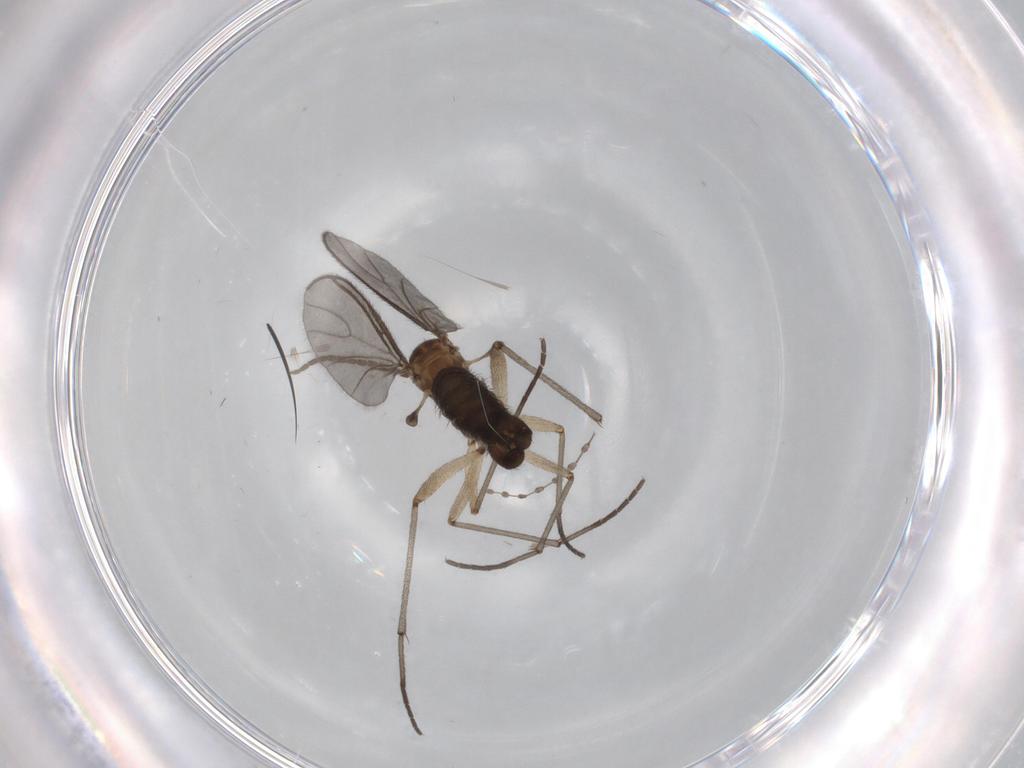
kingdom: Animalia
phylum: Arthropoda
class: Insecta
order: Diptera
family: Sciaridae
